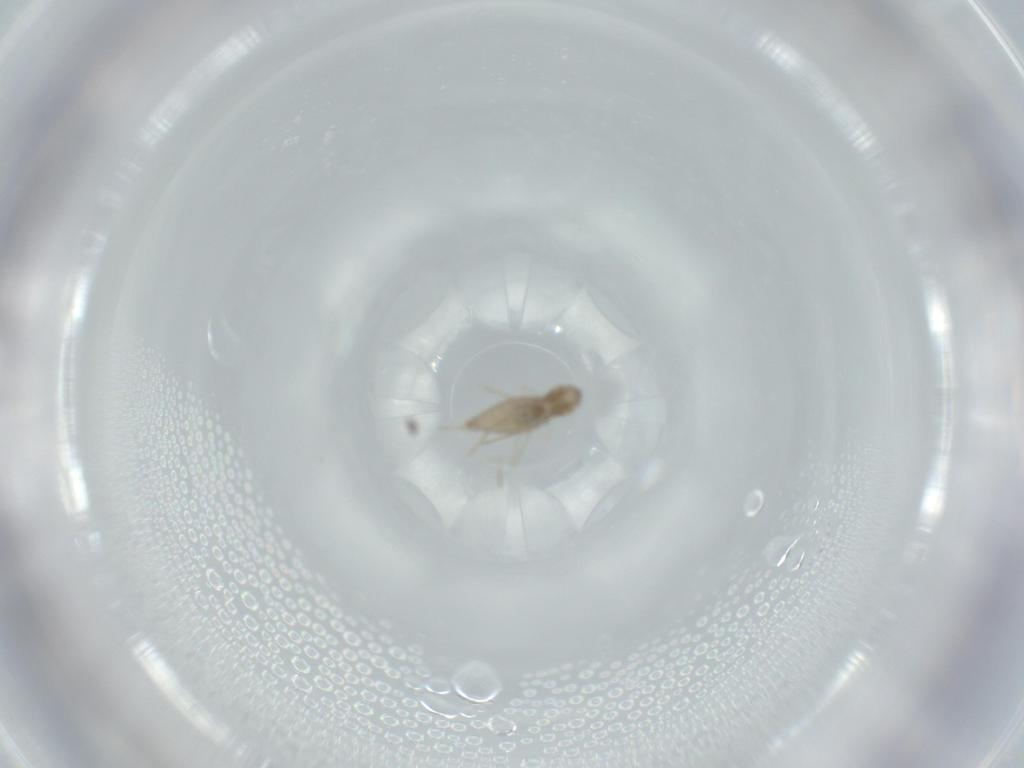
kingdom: Animalia
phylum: Arthropoda
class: Insecta
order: Diptera
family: Cecidomyiidae
